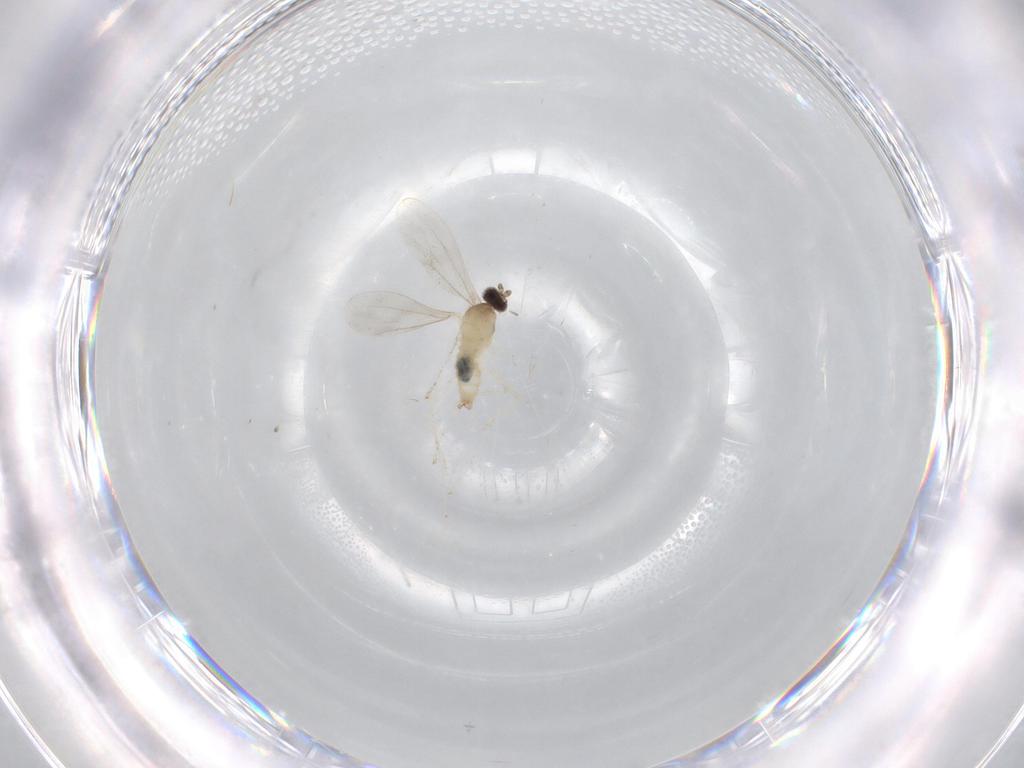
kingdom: Animalia
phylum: Arthropoda
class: Insecta
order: Diptera
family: Cecidomyiidae
